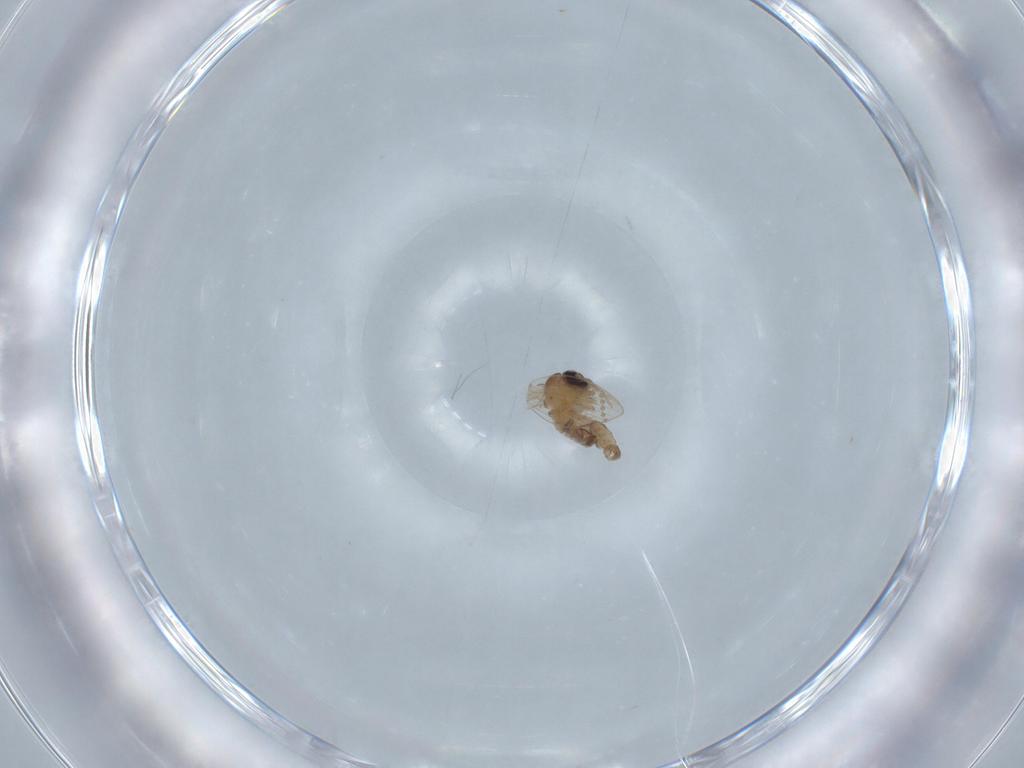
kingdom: Animalia
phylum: Arthropoda
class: Insecta
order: Diptera
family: Psychodidae
